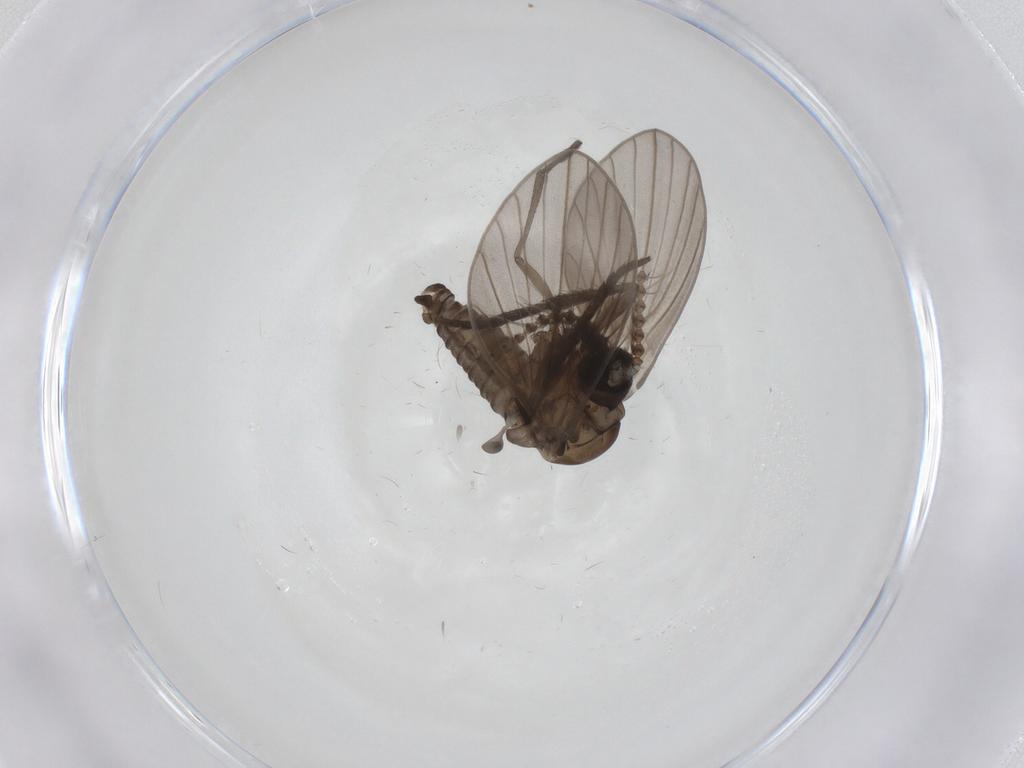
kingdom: Animalia
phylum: Arthropoda
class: Insecta
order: Diptera
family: Psychodidae
